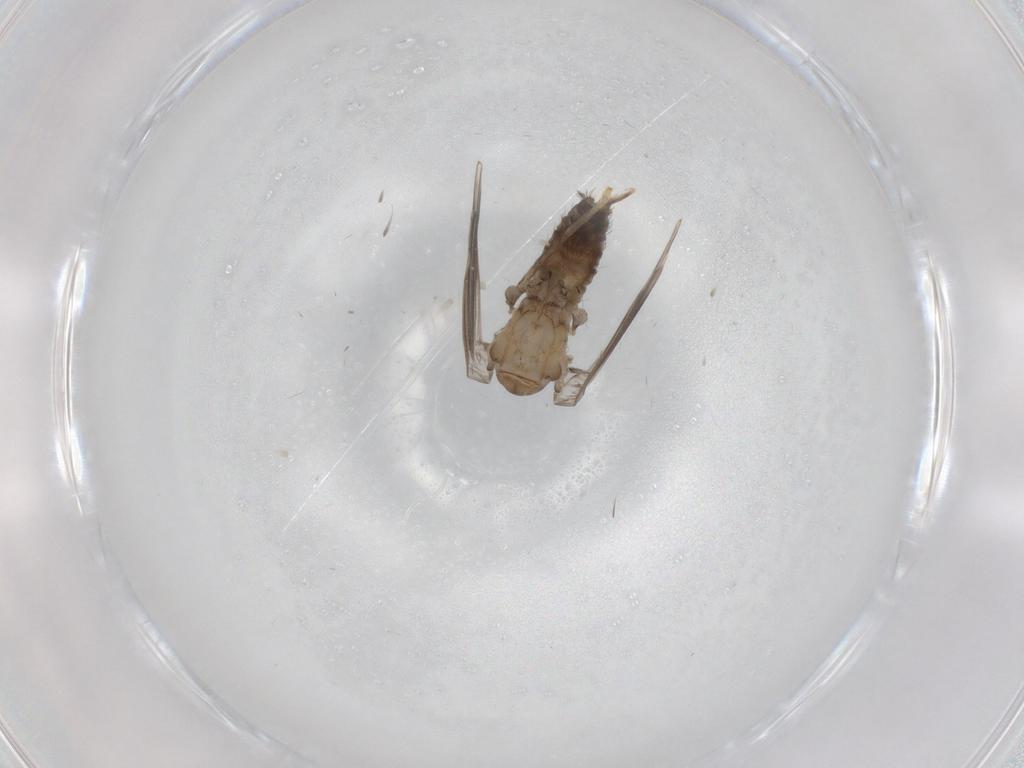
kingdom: Animalia
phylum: Arthropoda
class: Insecta
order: Diptera
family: Psychodidae
